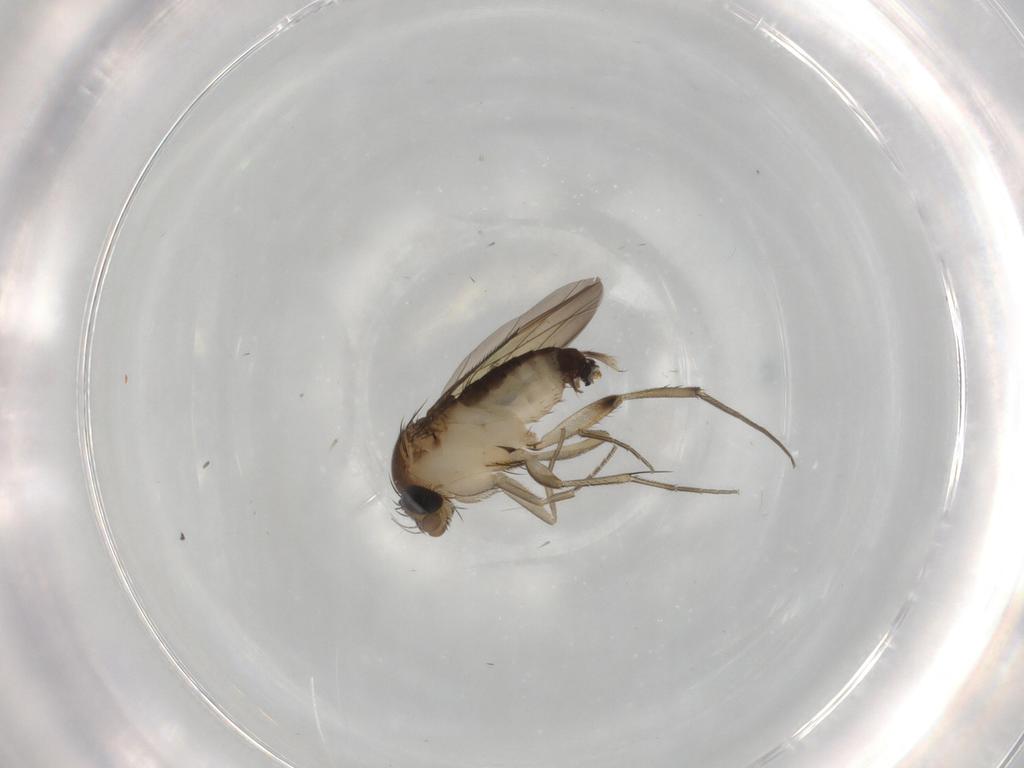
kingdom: Animalia
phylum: Arthropoda
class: Insecta
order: Diptera
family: Phoridae
